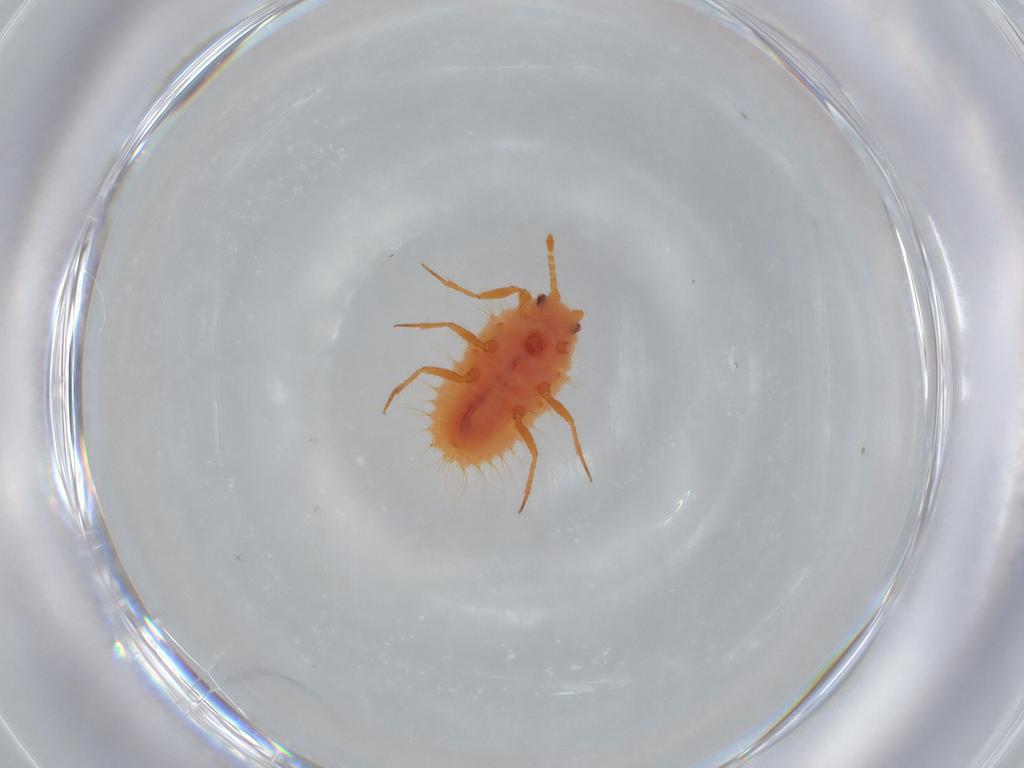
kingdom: Animalia
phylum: Arthropoda
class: Insecta
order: Hemiptera
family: Coccoidea_incertae_sedis
